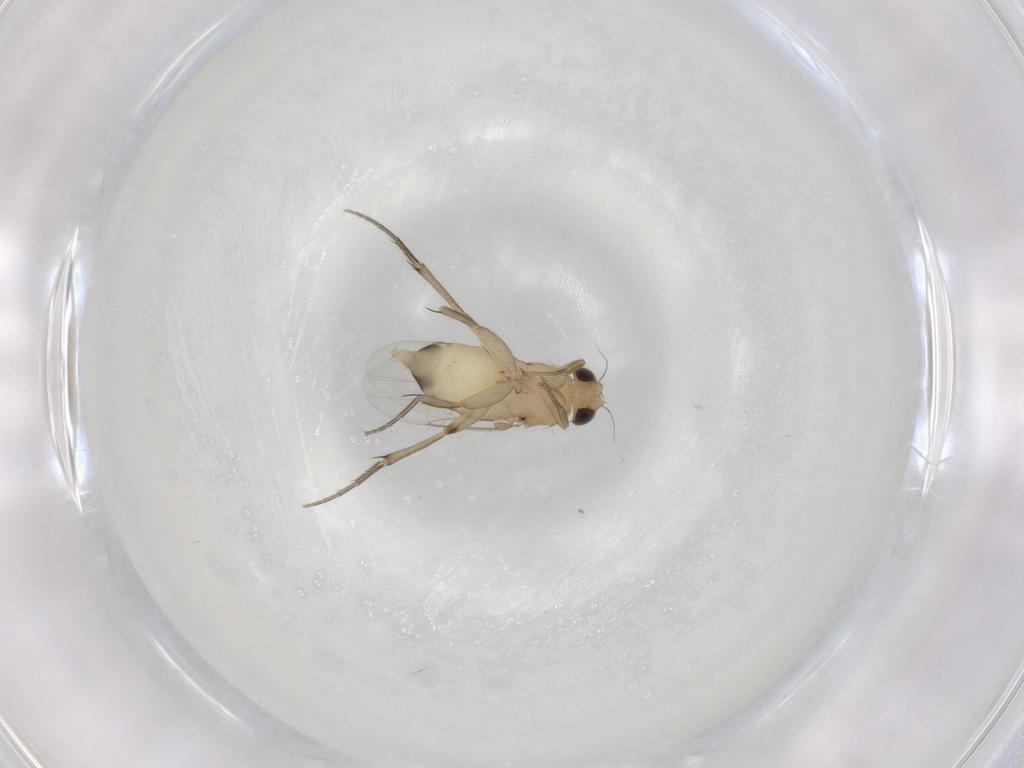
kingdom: Animalia
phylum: Arthropoda
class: Insecta
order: Diptera
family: Dolichopodidae
